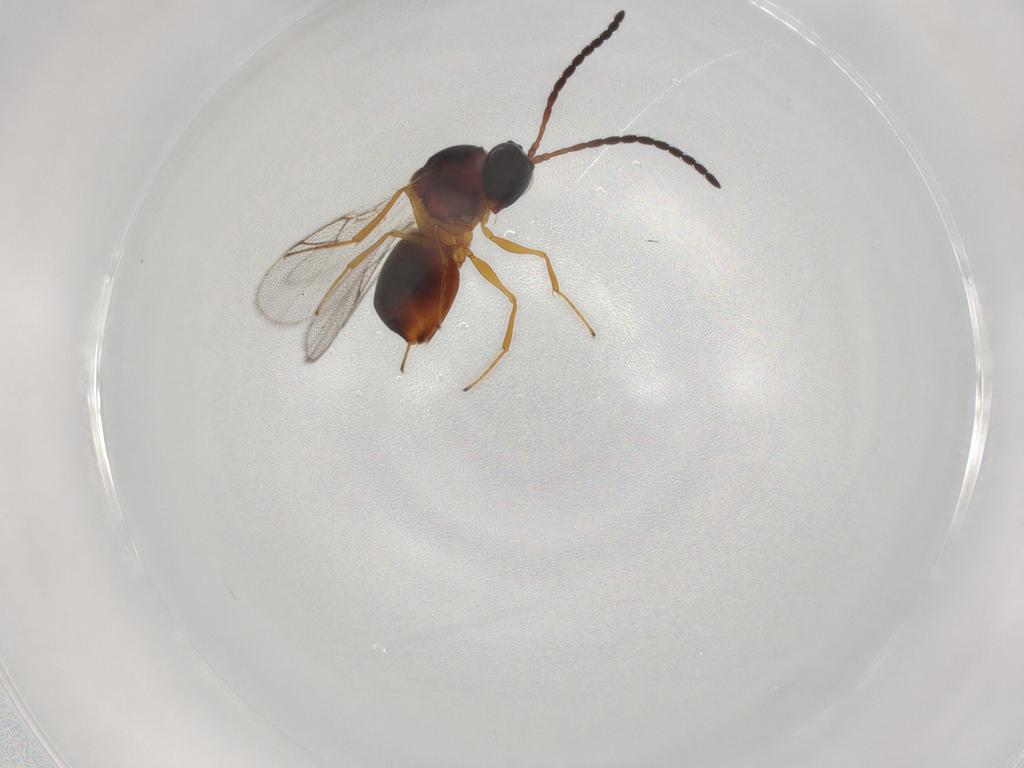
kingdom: Animalia
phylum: Arthropoda
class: Insecta
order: Hymenoptera
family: Figitidae
